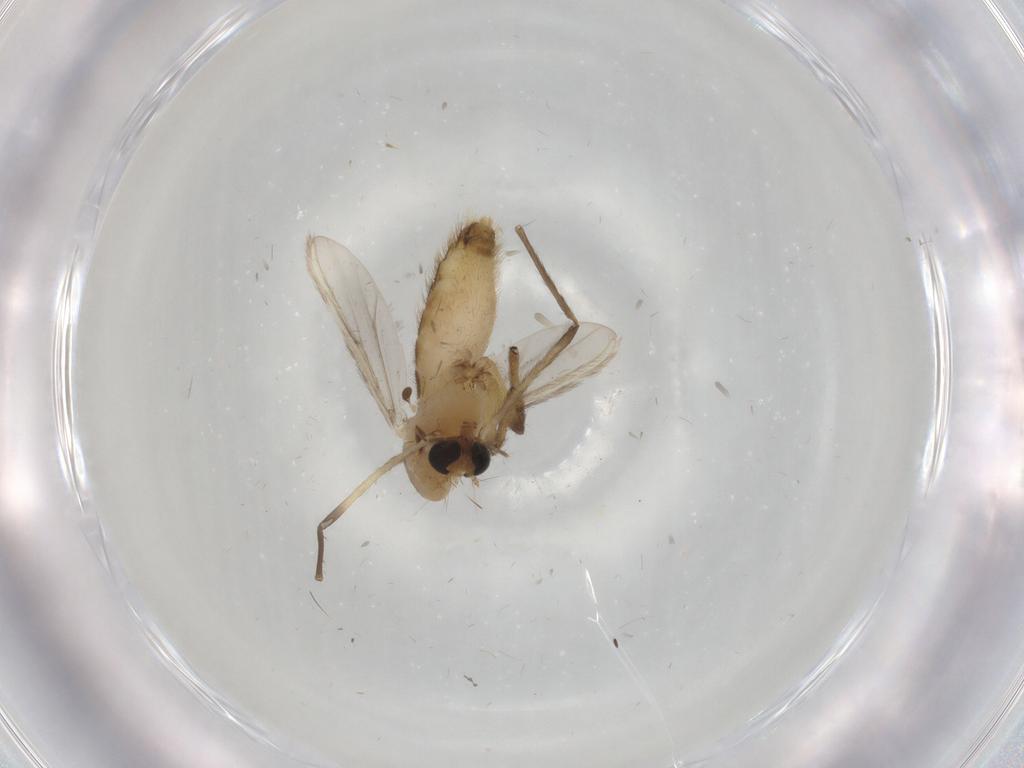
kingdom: Animalia
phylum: Arthropoda
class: Insecta
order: Diptera
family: Chironomidae
